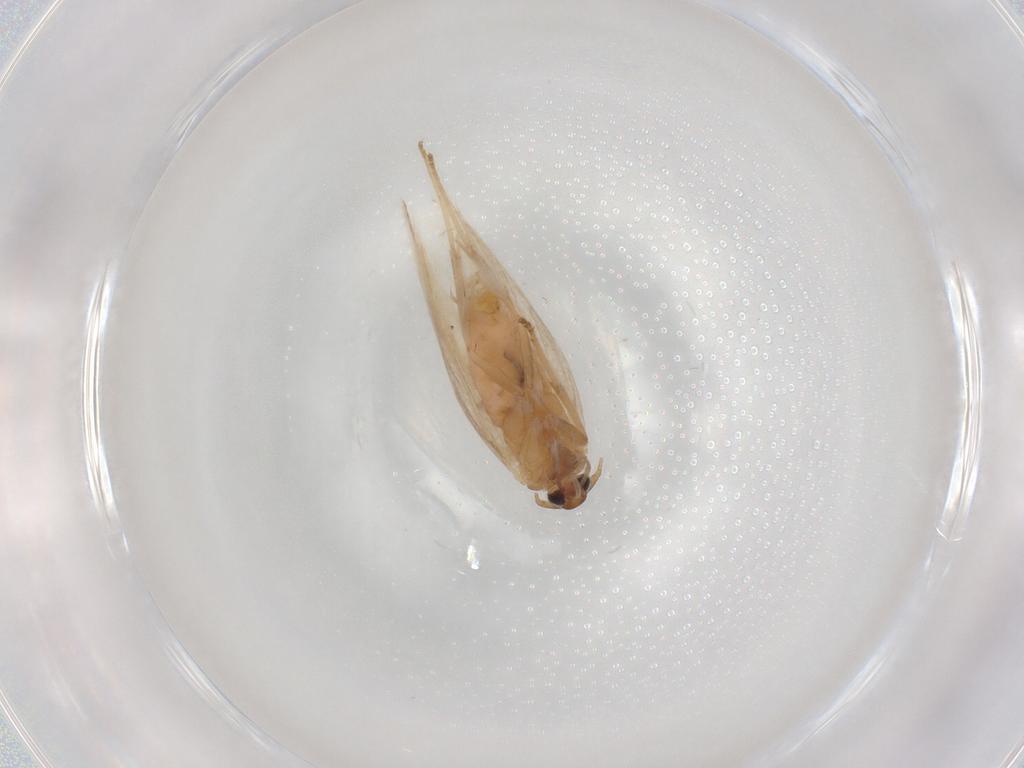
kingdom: Animalia
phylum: Arthropoda
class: Insecta
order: Lepidoptera
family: Gelechiidae
